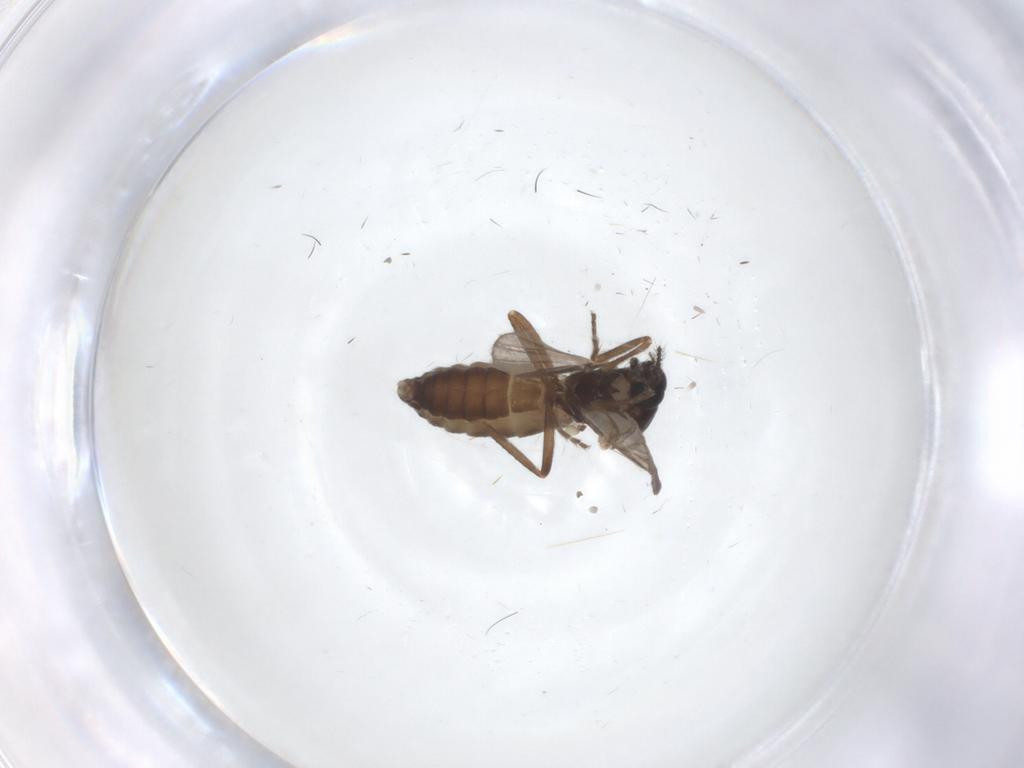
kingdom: Animalia
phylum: Arthropoda
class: Insecta
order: Diptera
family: Ceratopogonidae
